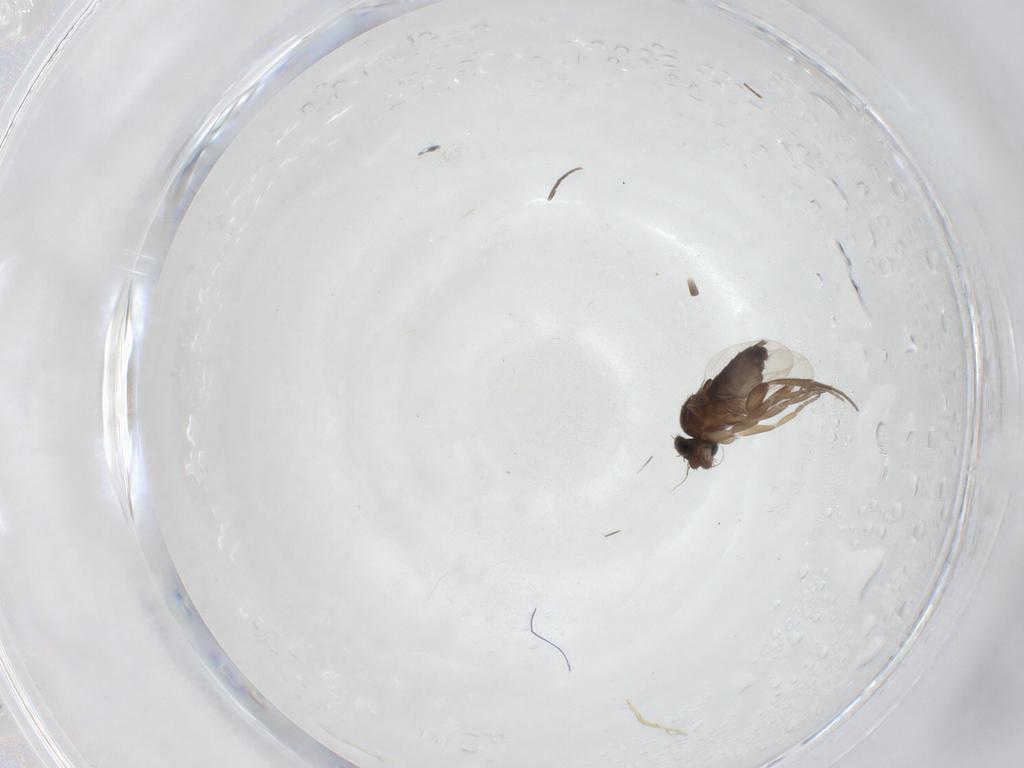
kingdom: Animalia
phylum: Arthropoda
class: Insecta
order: Diptera
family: Phoridae
